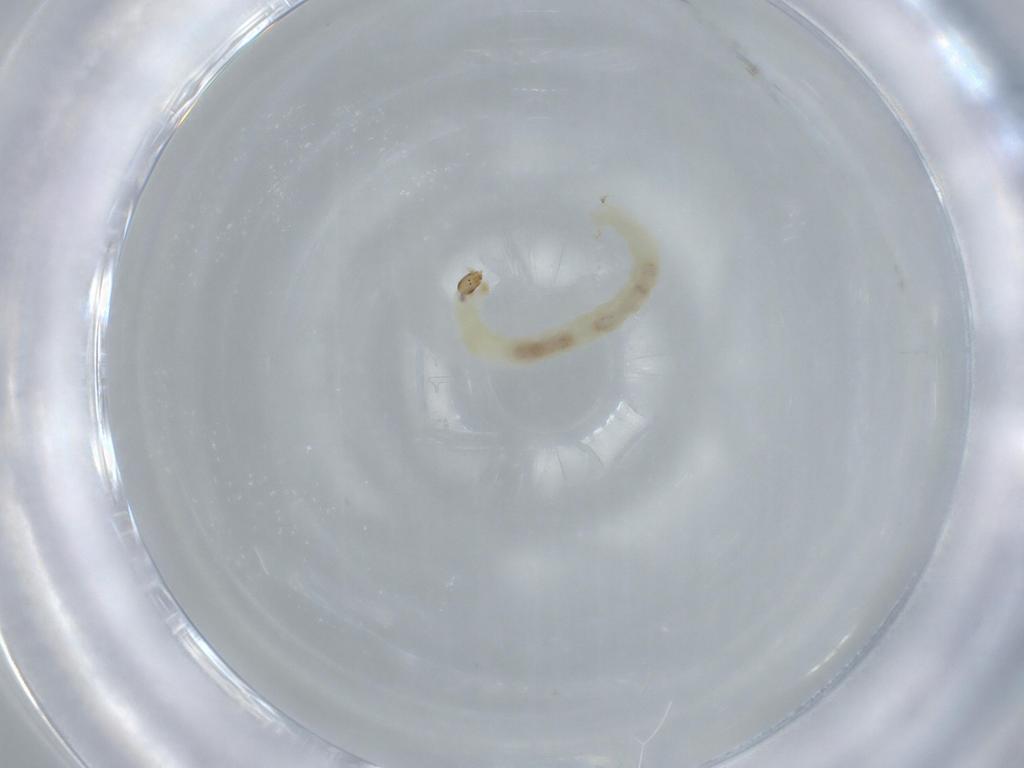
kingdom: Animalia
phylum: Arthropoda
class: Insecta
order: Diptera
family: Chironomidae
